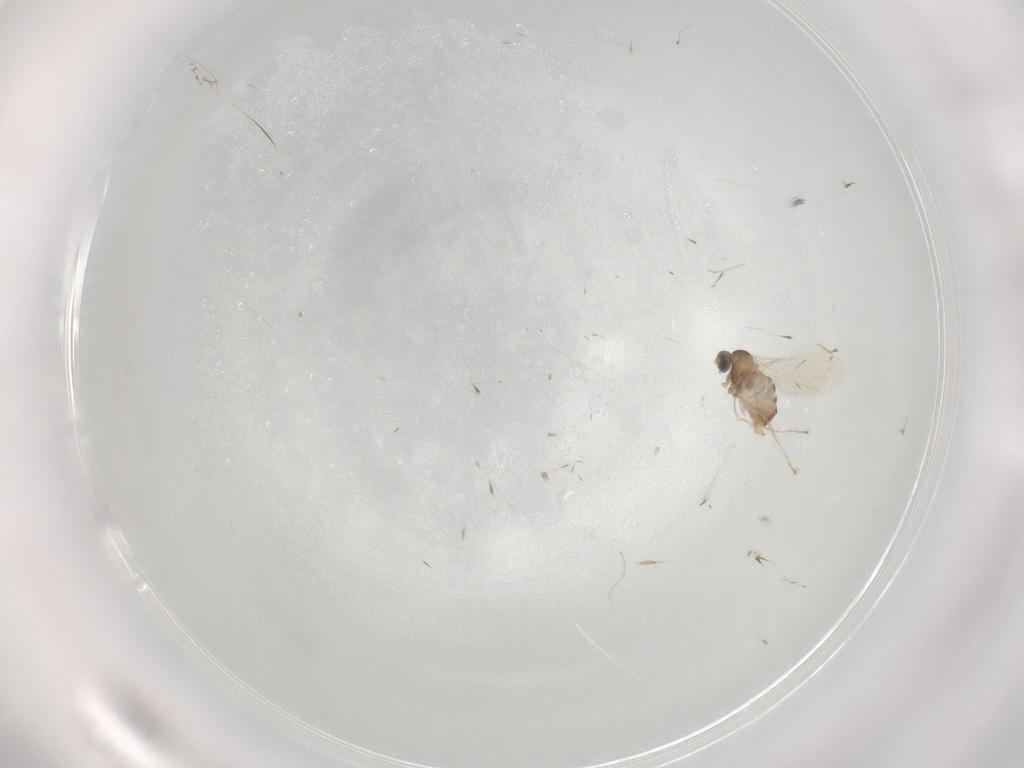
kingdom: Animalia
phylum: Arthropoda
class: Insecta
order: Diptera
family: Cecidomyiidae
